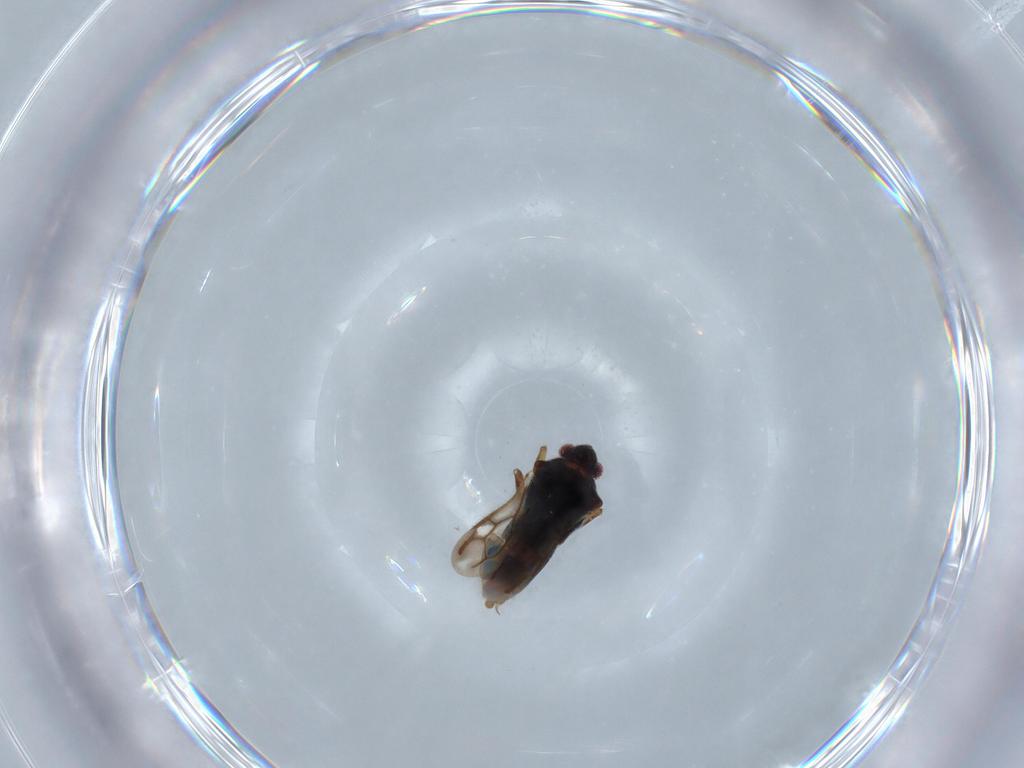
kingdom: Animalia
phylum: Arthropoda
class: Insecta
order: Hemiptera
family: Veliidae
